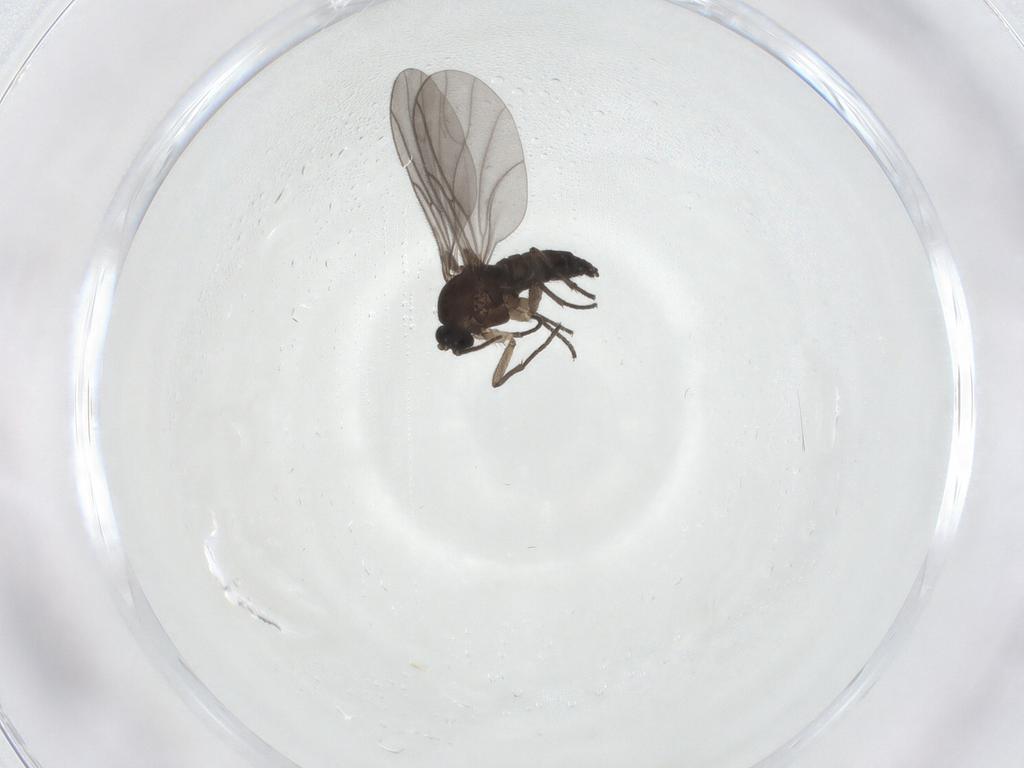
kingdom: Animalia
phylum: Arthropoda
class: Insecta
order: Diptera
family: Sciaridae
